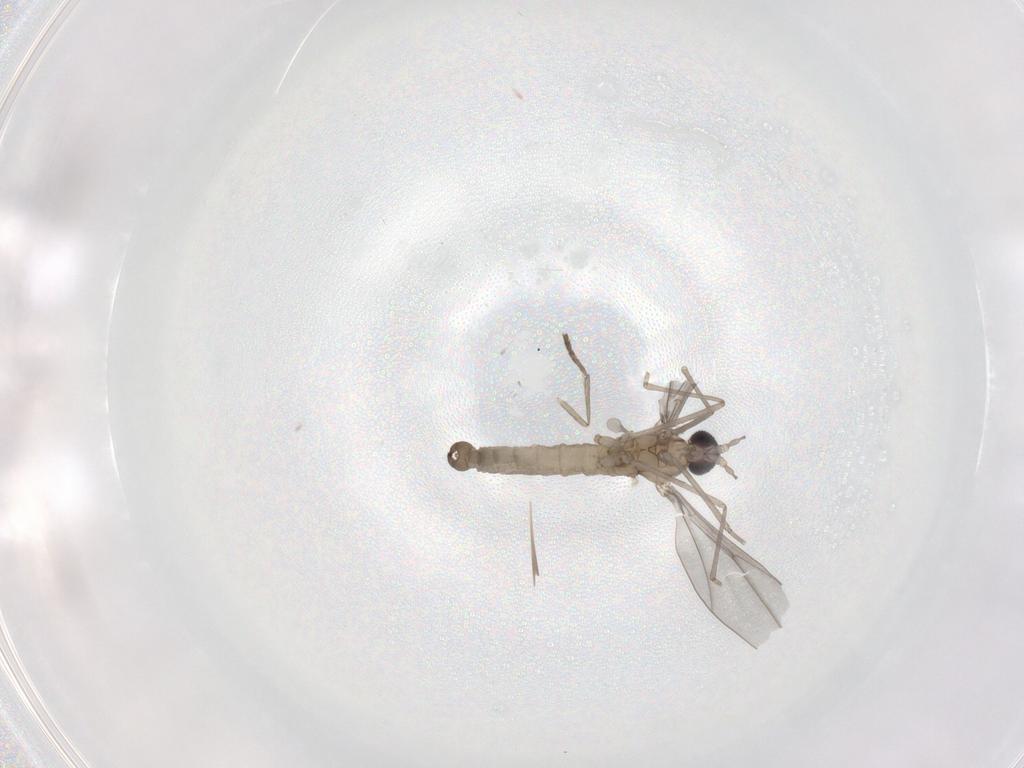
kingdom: Animalia
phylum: Arthropoda
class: Insecta
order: Diptera
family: Cecidomyiidae
